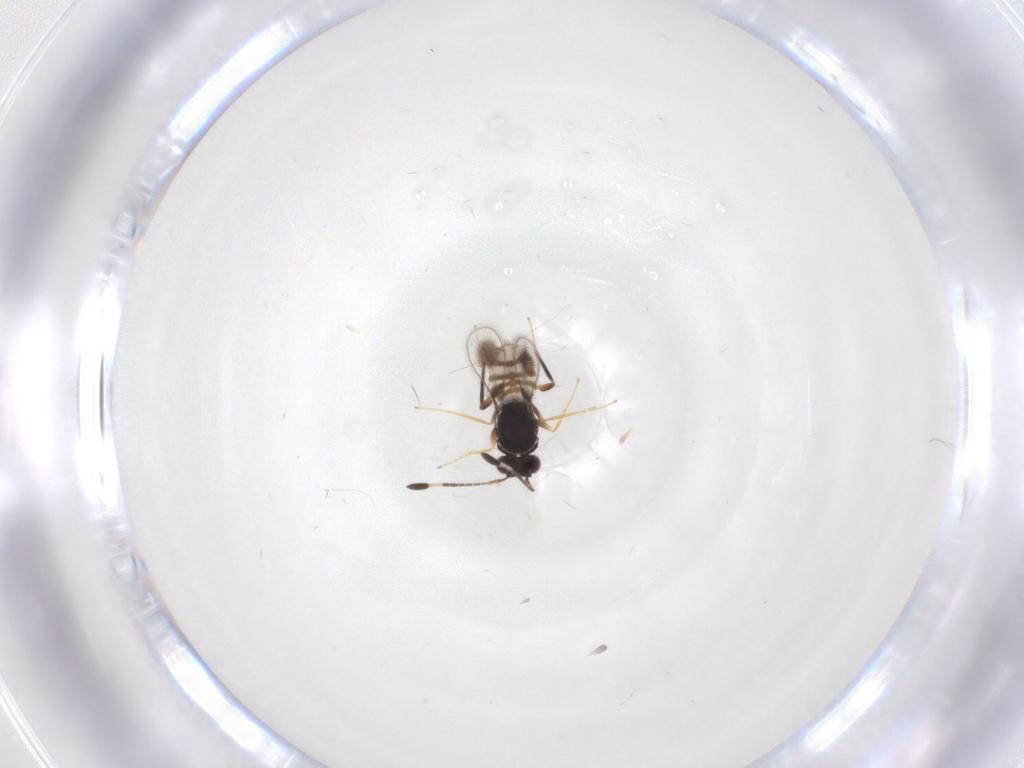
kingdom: Animalia
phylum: Arthropoda
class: Insecta
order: Hymenoptera
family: Mymaridae
